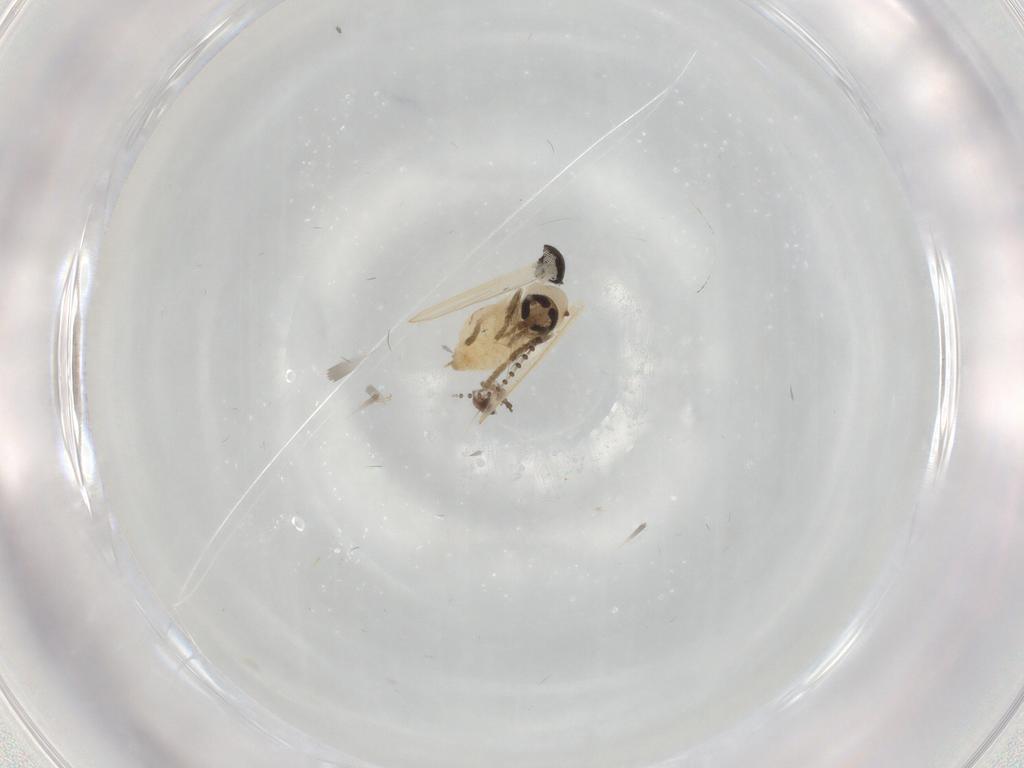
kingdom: Animalia
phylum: Arthropoda
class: Insecta
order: Diptera
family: Psychodidae
